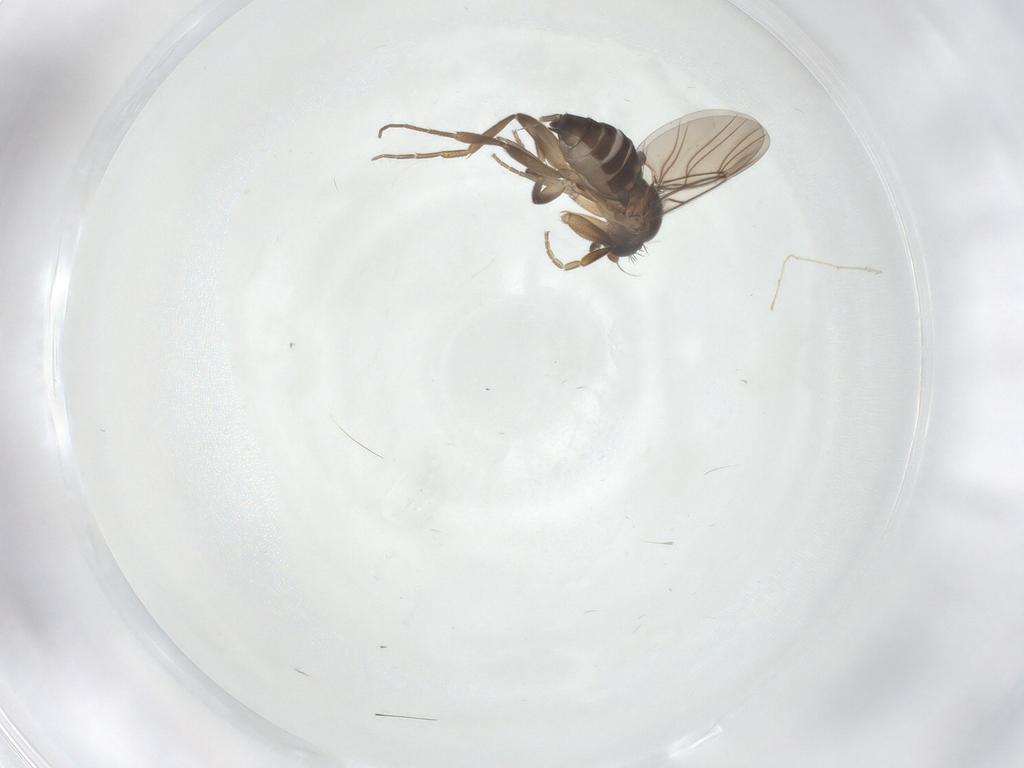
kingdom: Animalia
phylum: Arthropoda
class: Insecta
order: Diptera
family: Phoridae
